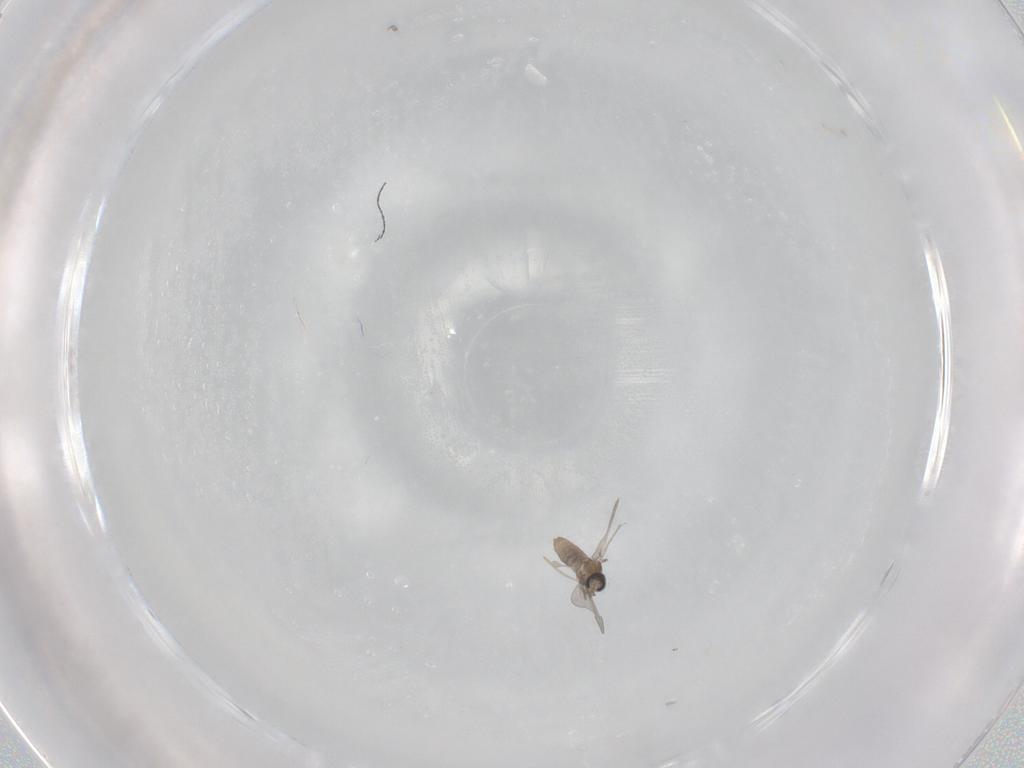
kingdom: Animalia
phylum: Arthropoda
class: Insecta
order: Diptera
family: Cecidomyiidae
